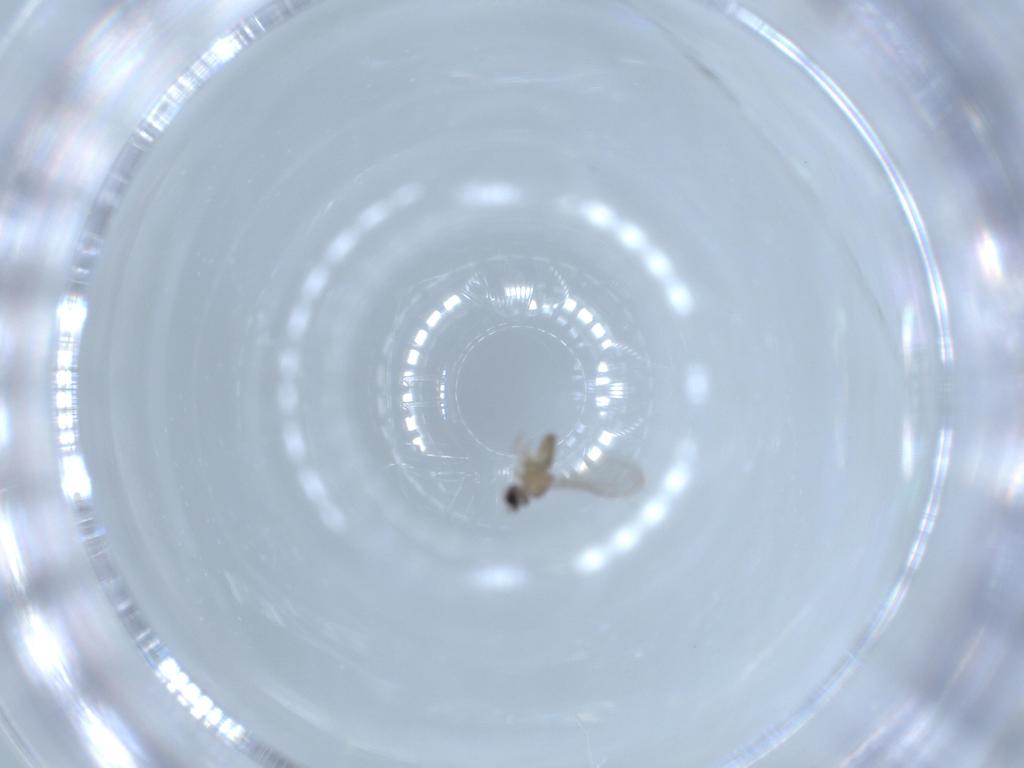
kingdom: Animalia
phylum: Arthropoda
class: Insecta
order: Diptera
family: Cecidomyiidae
